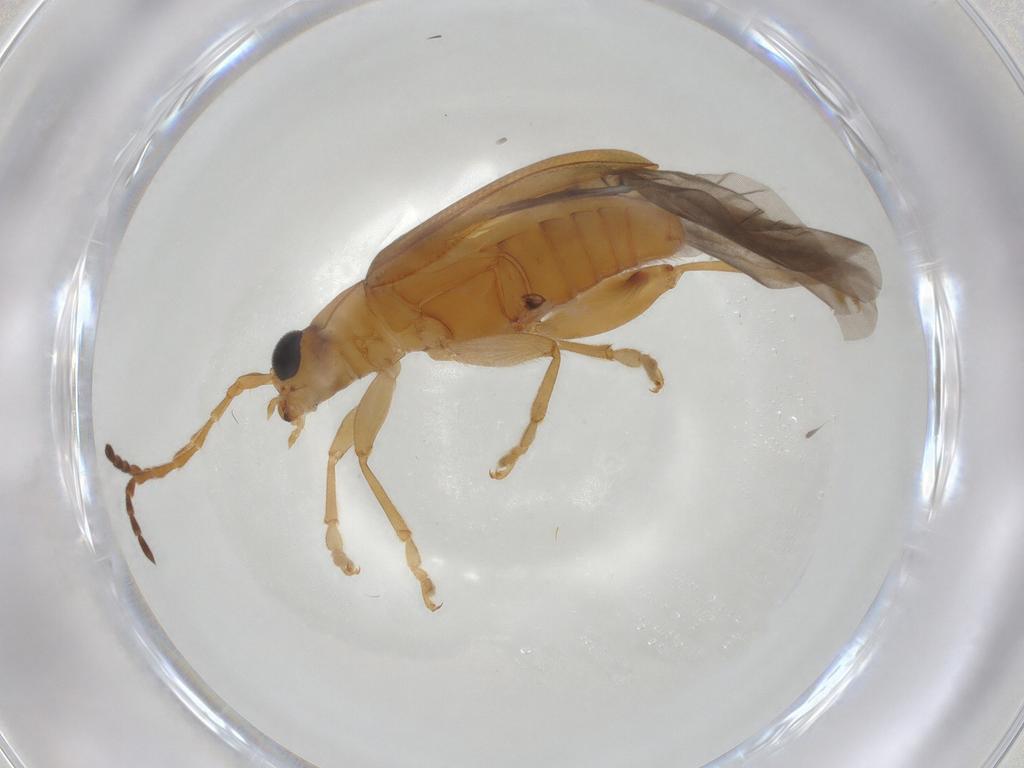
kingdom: Animalia
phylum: Arthropoda
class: Insecta
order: Coleoptera
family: Chrysomelidae
